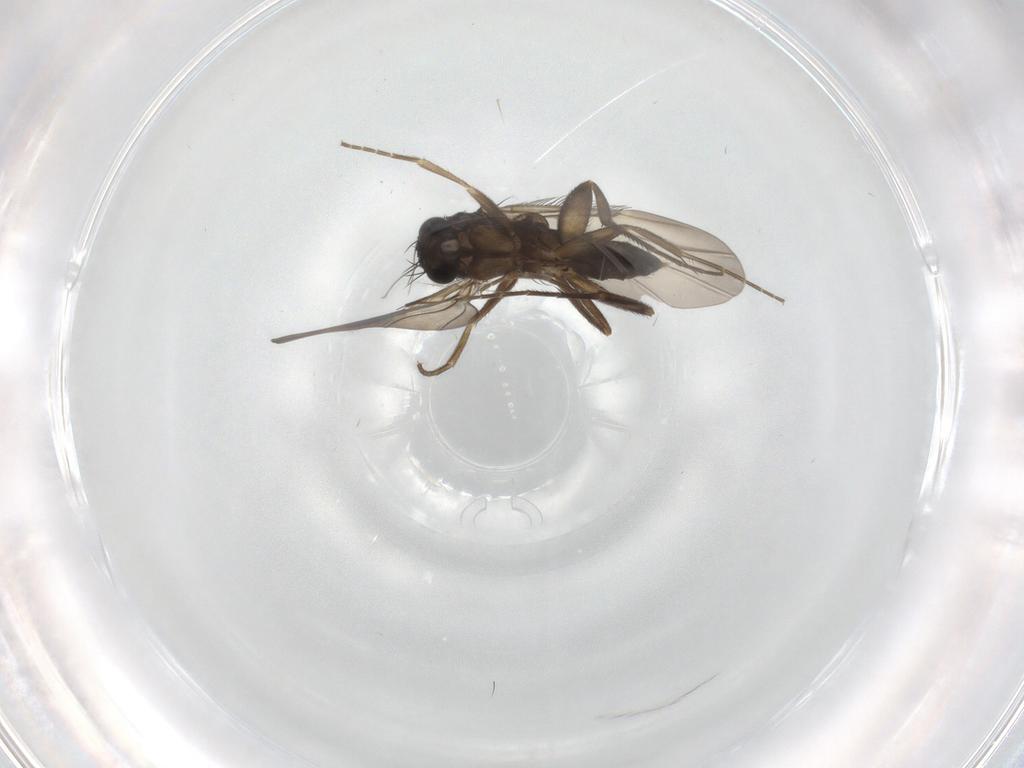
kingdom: Animalia
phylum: Arthropoda
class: Insecta
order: Diptera
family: Phoridae
